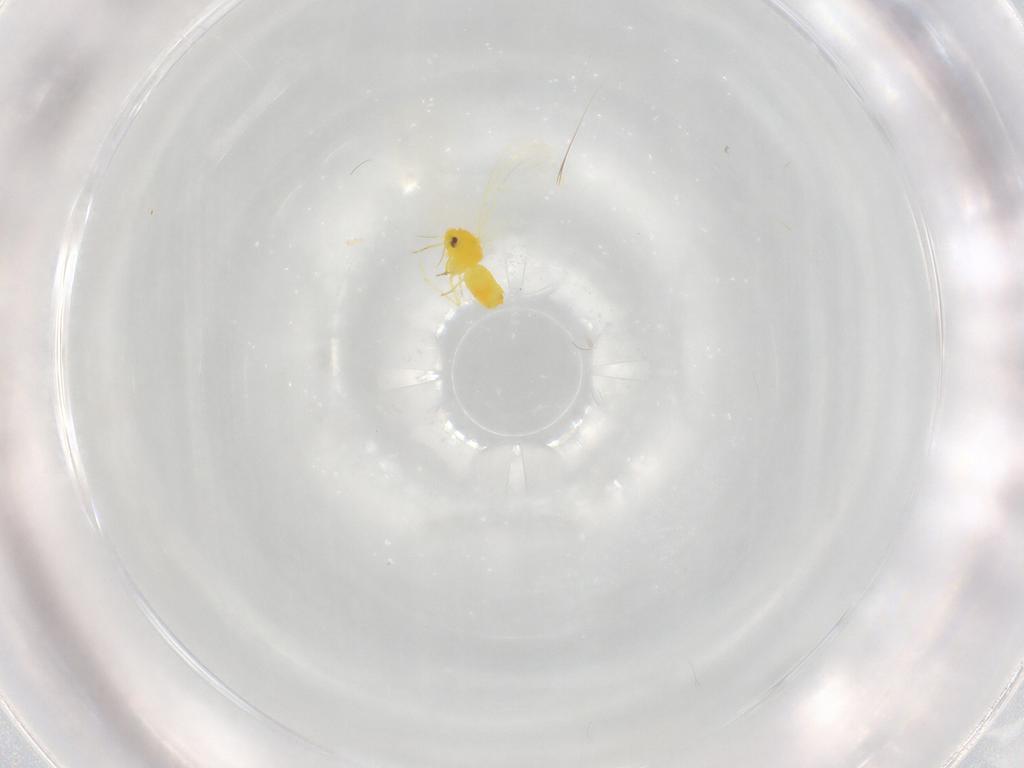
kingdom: Animalia
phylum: Arthropoda
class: Insecta
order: Hemiptera
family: Aleyrodidae
